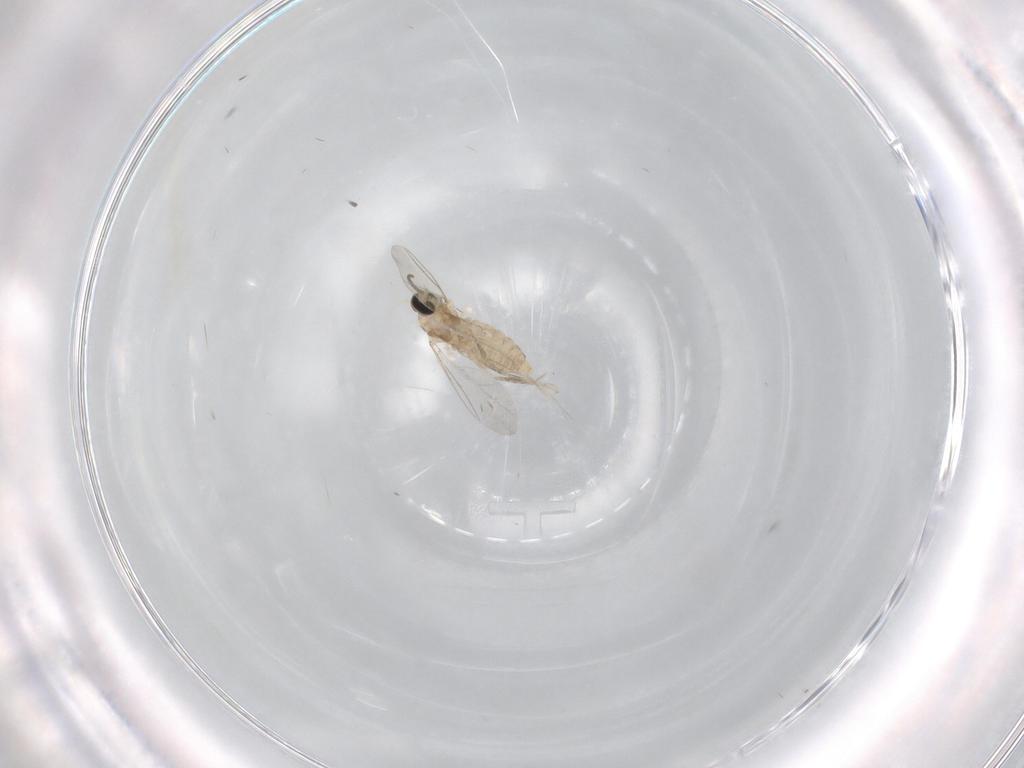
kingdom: Animalia
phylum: Arthropoda
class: Insecta
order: Diptera
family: Cecidomyiidae
